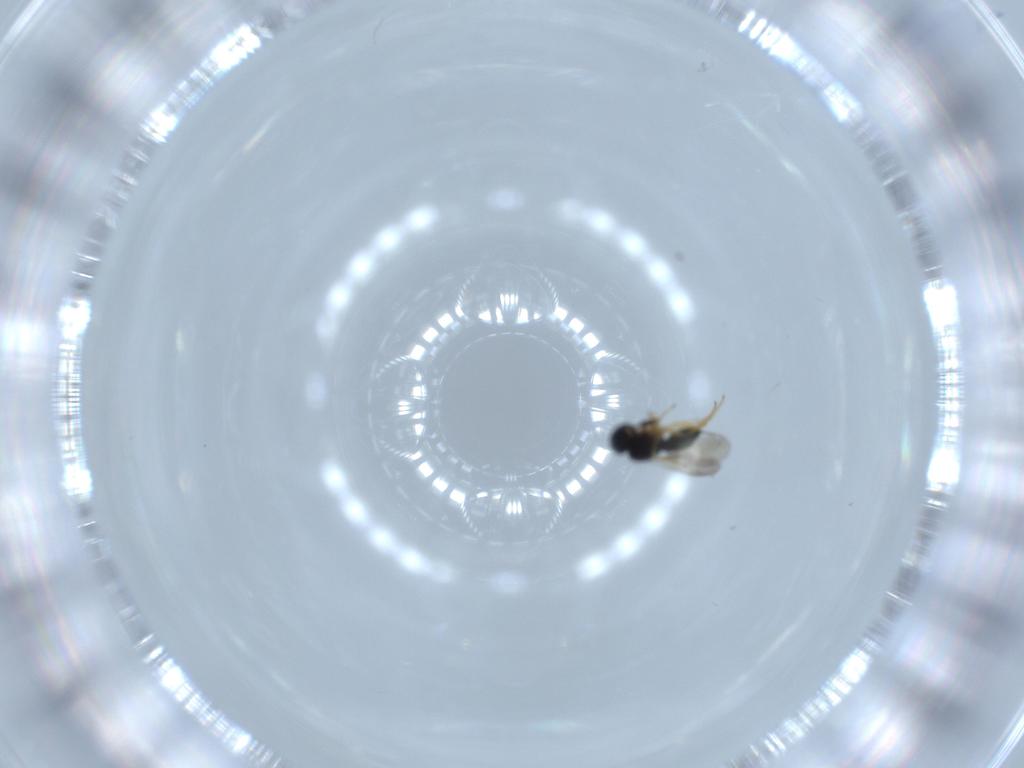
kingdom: Animalia
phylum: Arthropoda
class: Insecta
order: Hymenoptera
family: Scelionidae
